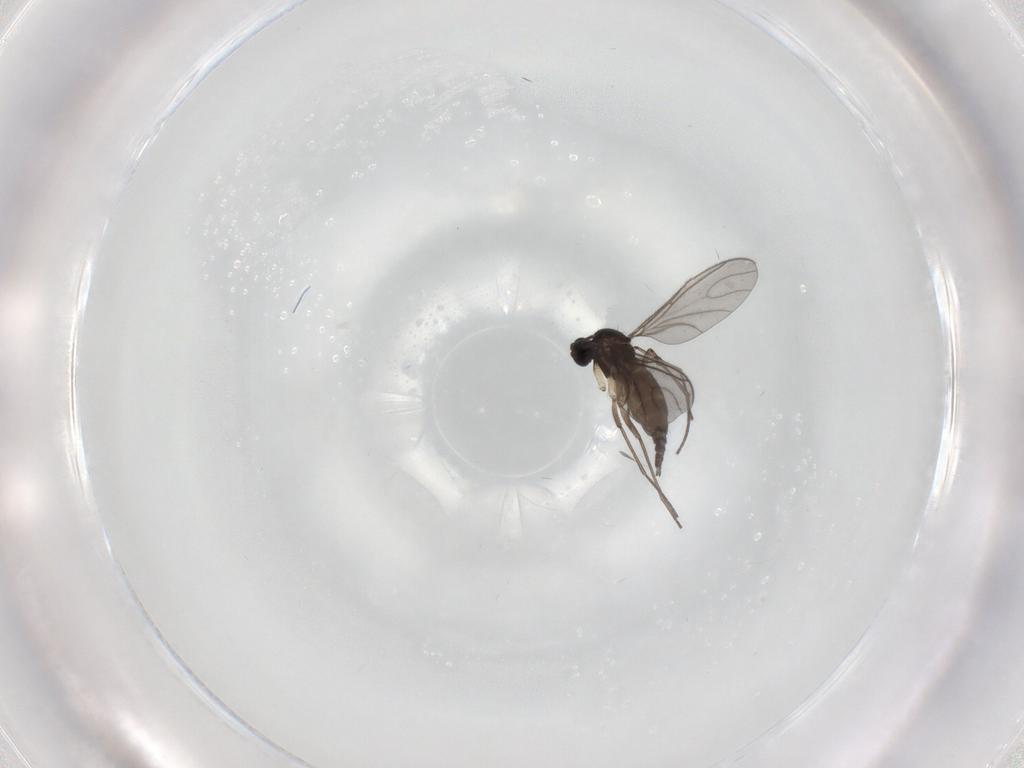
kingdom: Animalia
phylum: Arthropoda
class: Insecta
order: Diptera
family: Sciaridae
